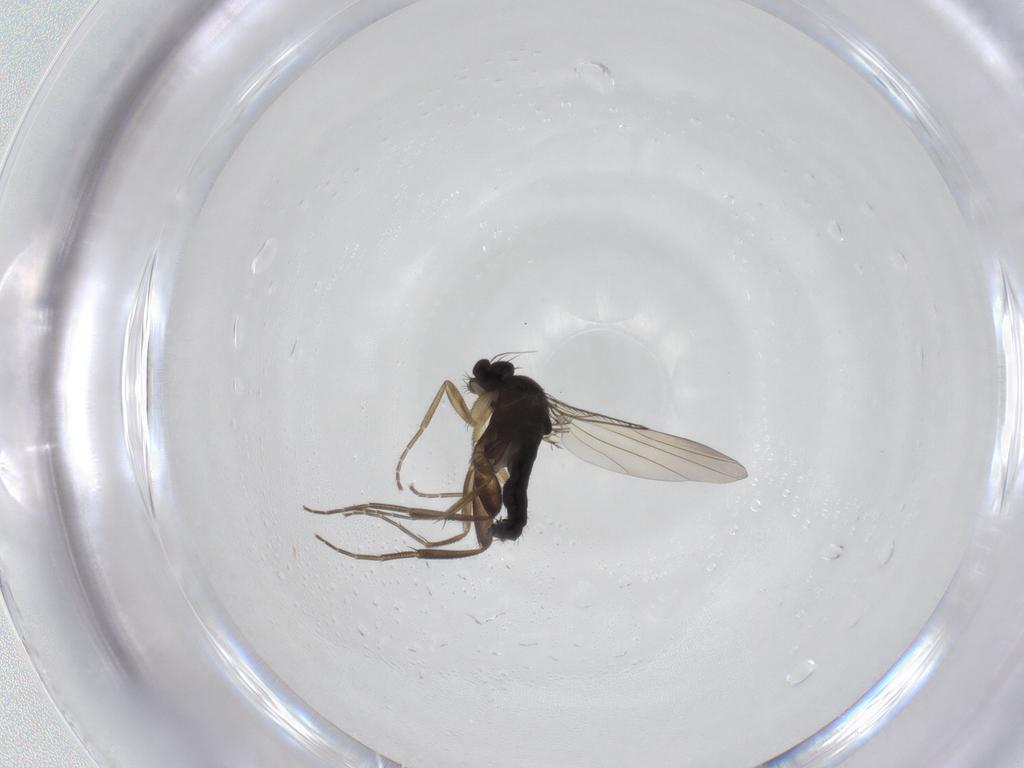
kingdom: Animalia
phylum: Arthropoda
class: Insecta
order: Diptera
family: Phoridae
